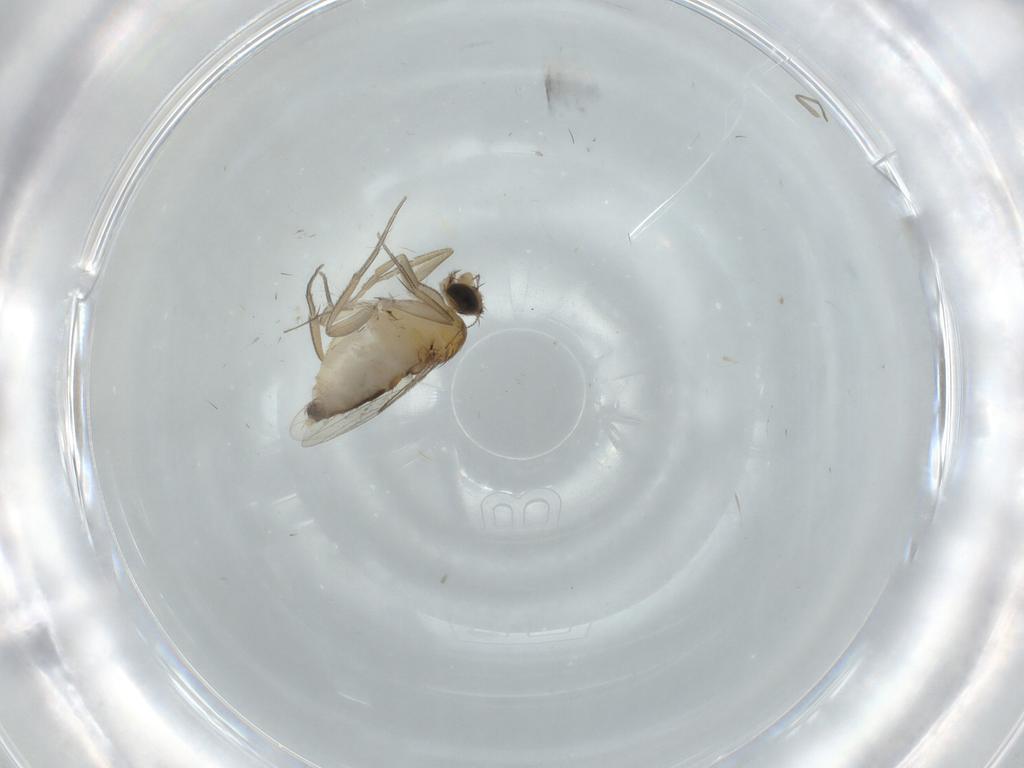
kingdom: Animalia
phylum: Arthropoda
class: Insecta
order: Diptera
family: Phoridae
